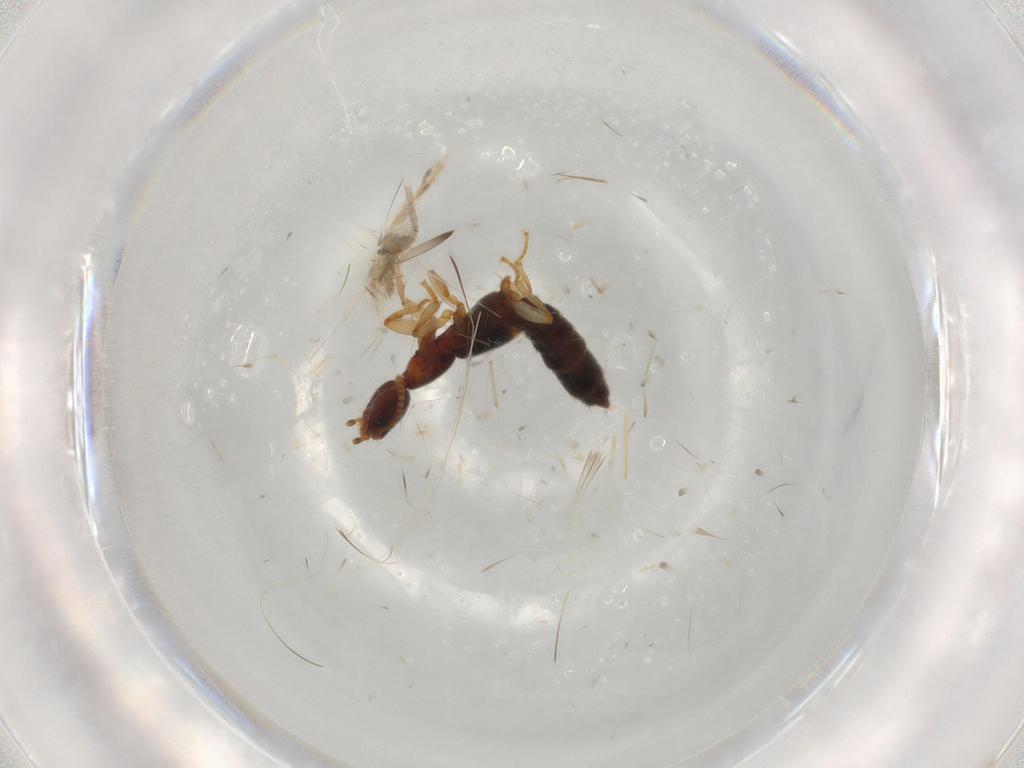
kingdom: Animalia
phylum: Arthropoda
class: Insecta
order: Coleoptera
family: Staphylinidae
